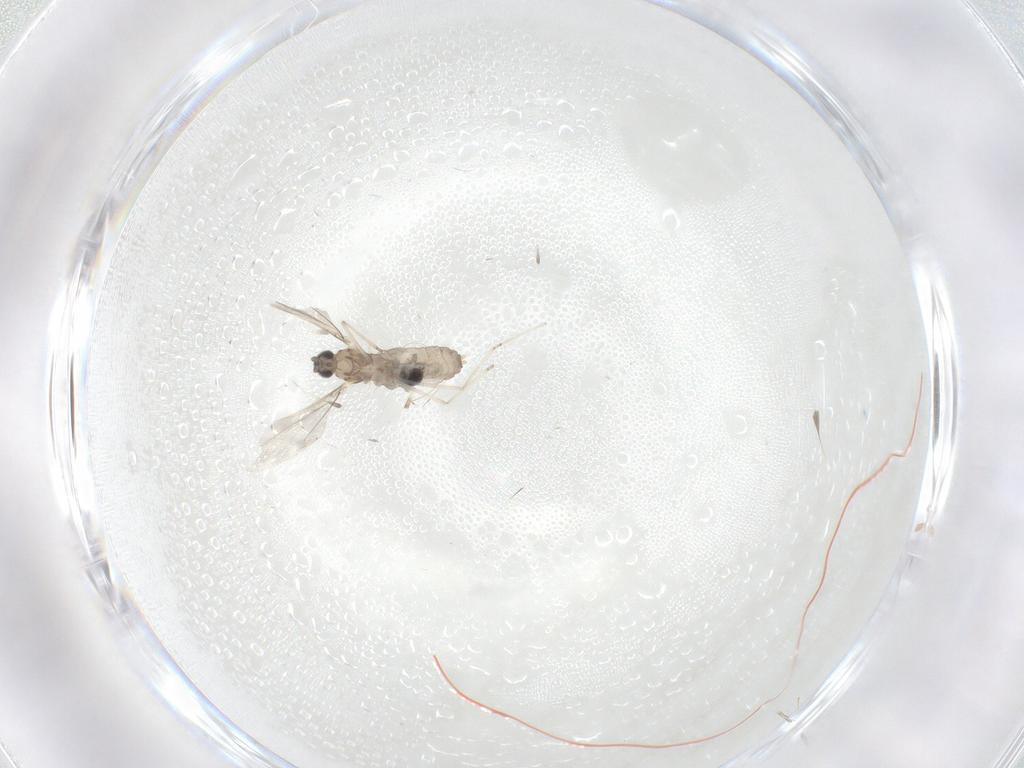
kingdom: Animalia
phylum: Arthropoda
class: Insecta
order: Diptera
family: Cecidomyiidae
